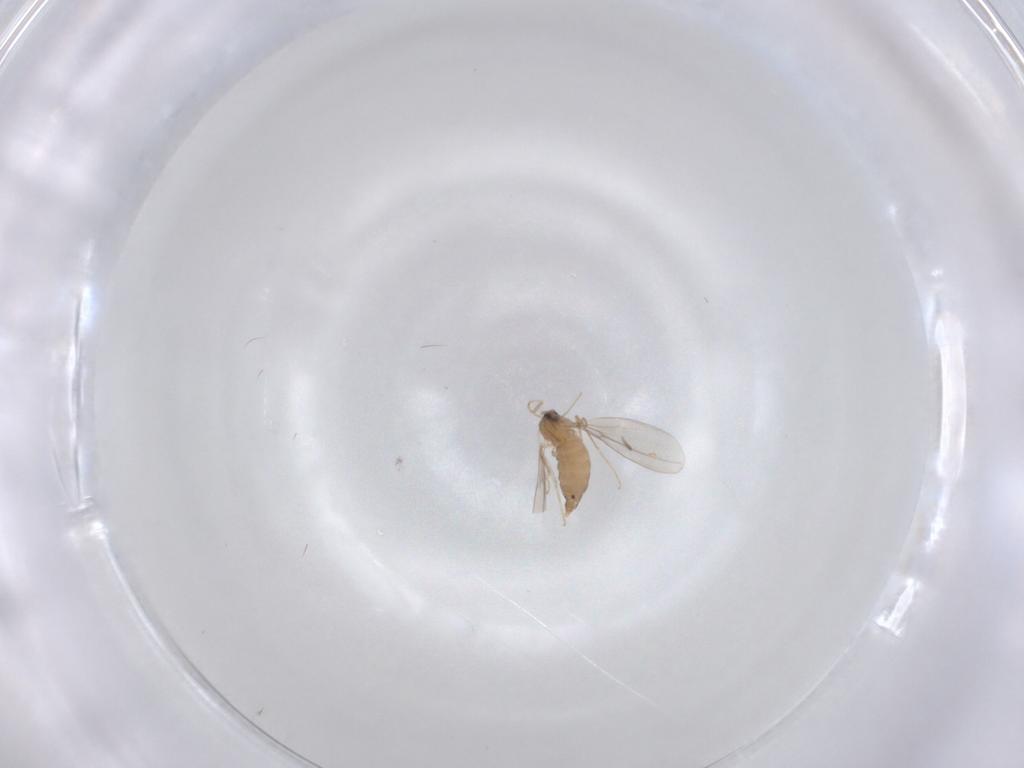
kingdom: Animalia
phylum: Arthropoda
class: Insecta
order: Diptera
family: Cecidomyiidae
